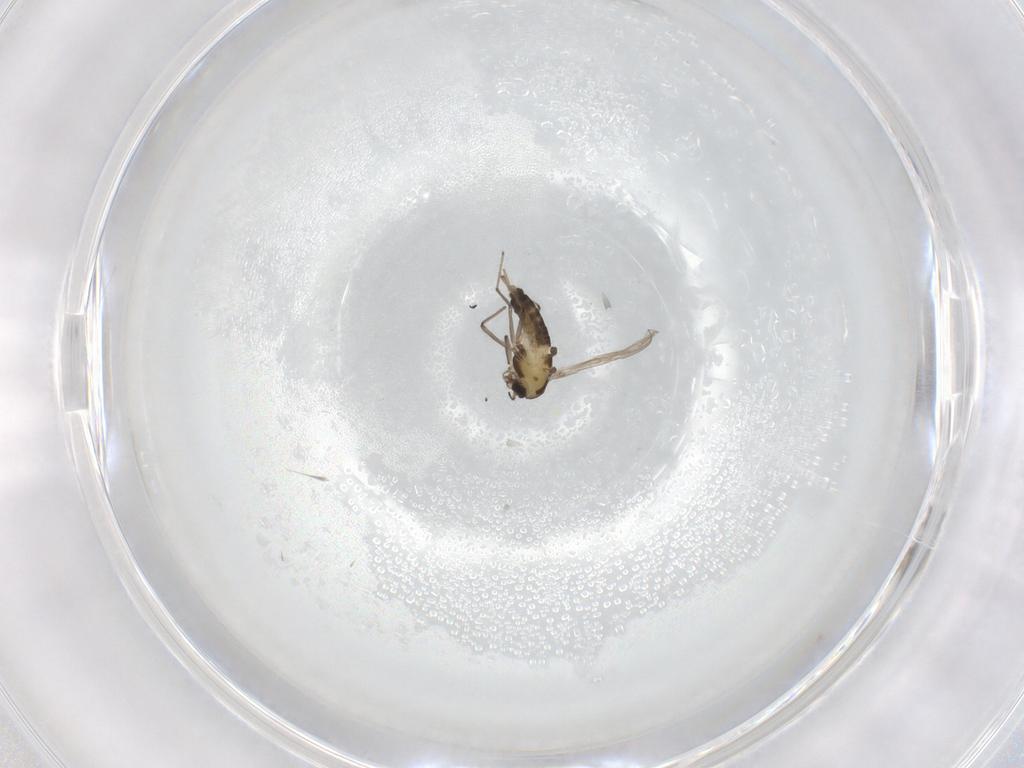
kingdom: Animalia
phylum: Arthropoda
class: Insecta
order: Diptera
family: Chironomidae
